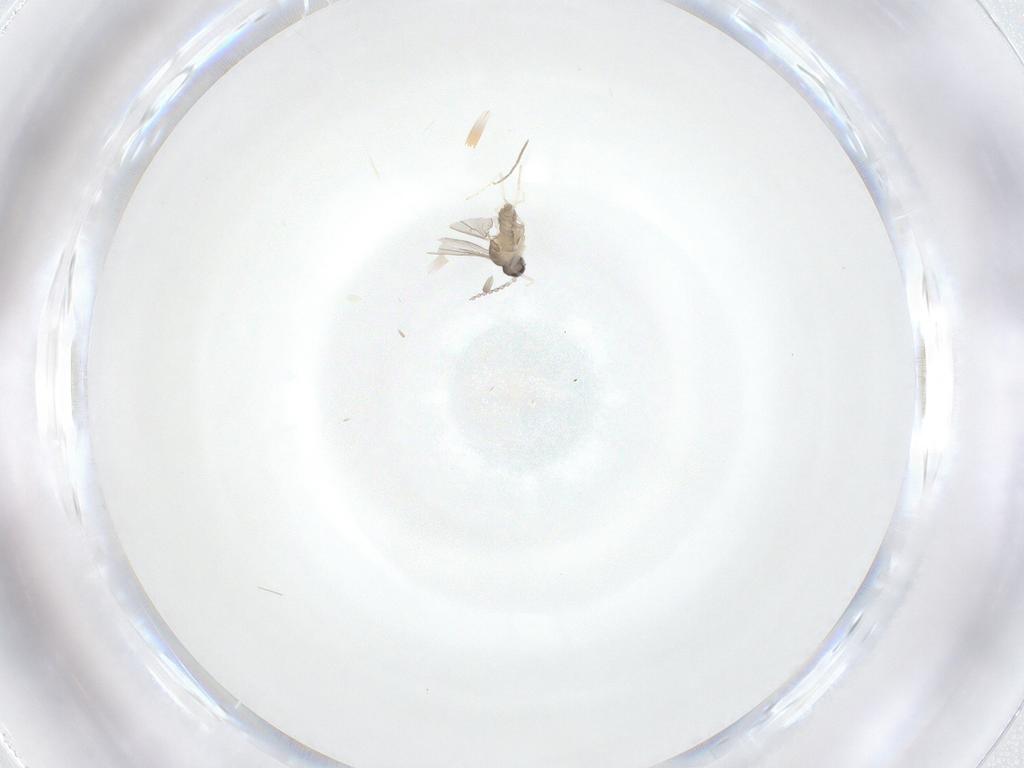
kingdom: Animalia
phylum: Arthropoda
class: Insecta
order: Diptera
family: Cecidomyiidae
